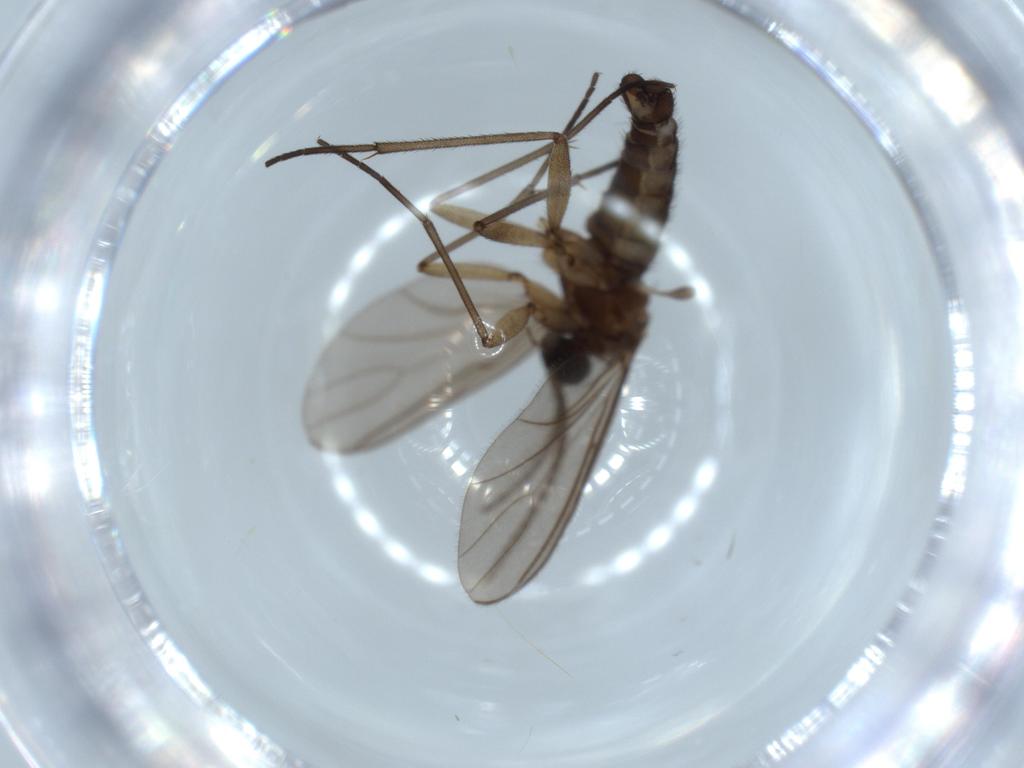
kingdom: Animalia
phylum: Arthropoda
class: Insecta
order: Diptera
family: Sciaridae
